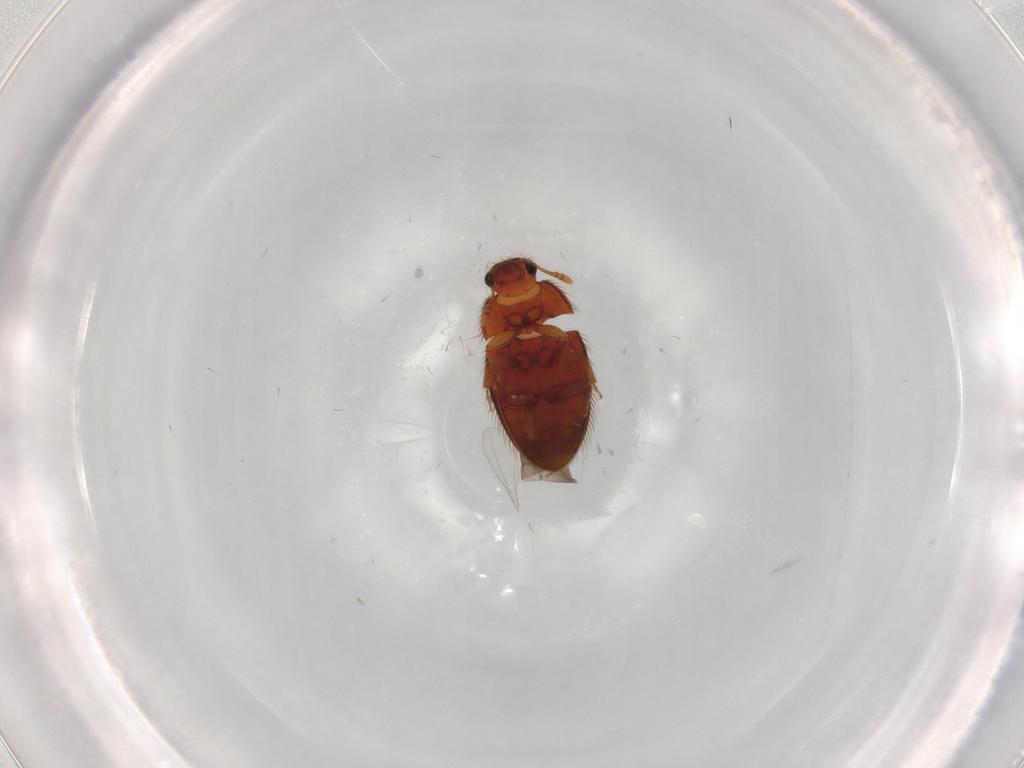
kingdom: Animalia
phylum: Arthropoda
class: Insecta
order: Coleoptera
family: Biphyllidae
